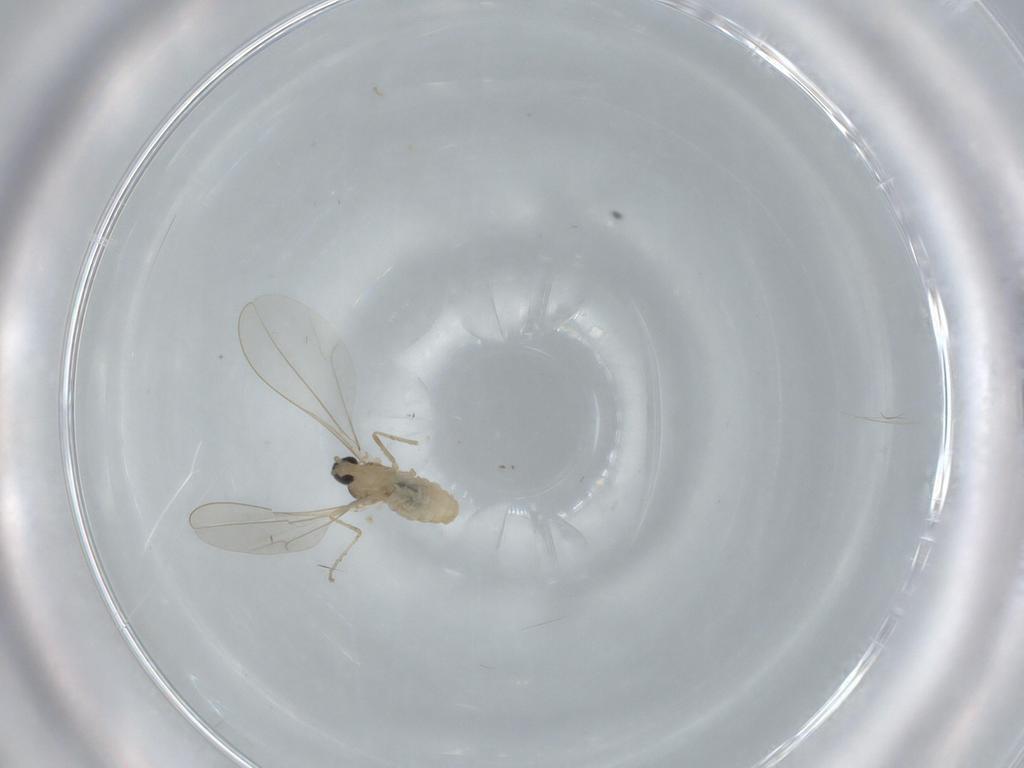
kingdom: Animalia
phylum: Arthropoda
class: Insecta
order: Diptera
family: Cecidomyiidae
